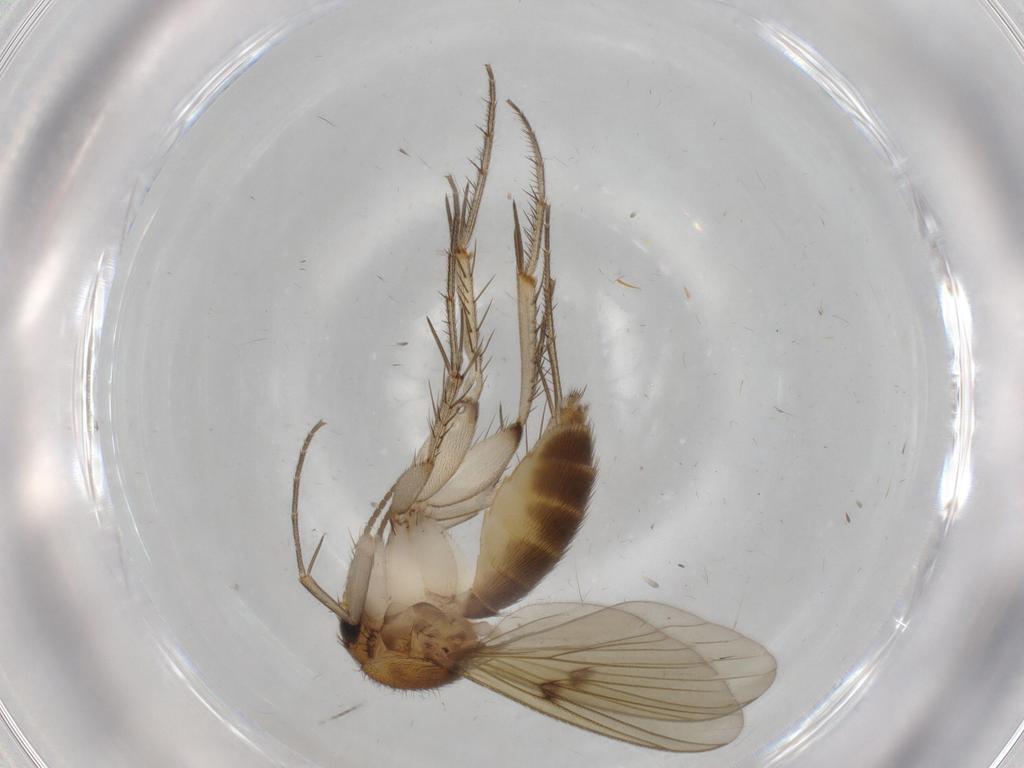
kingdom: Animalia
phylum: Arthropoda
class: Insecta
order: Diptera
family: Mycetophilidae
